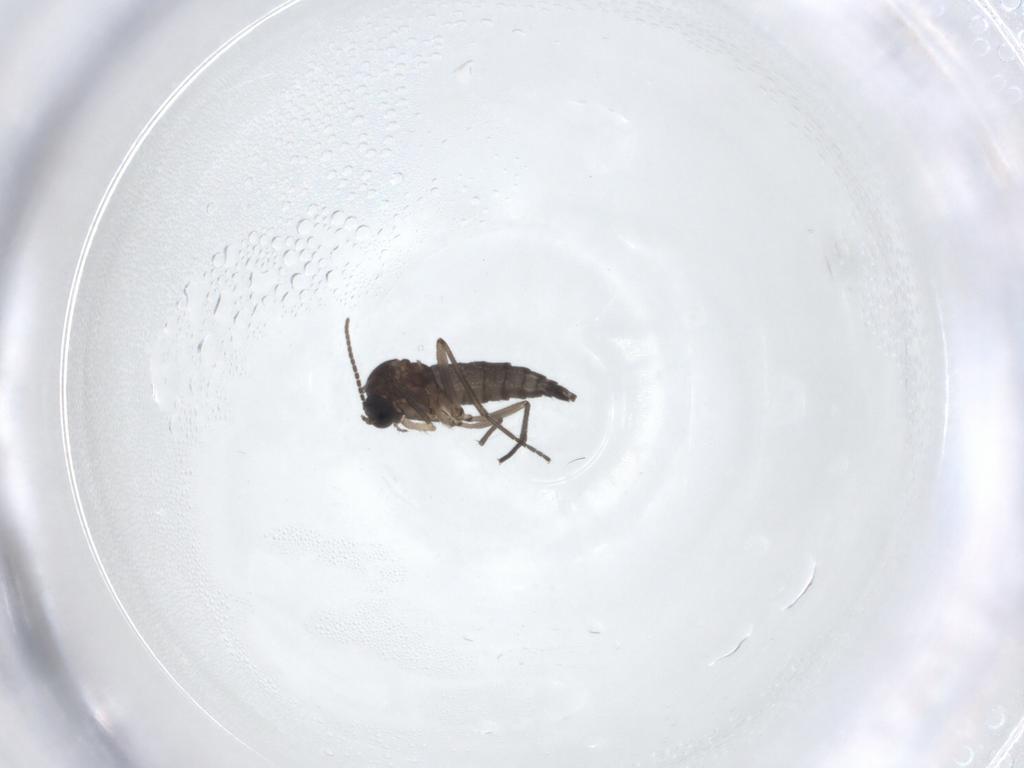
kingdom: Animalia
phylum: Arthropoda
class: Insecta
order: Diptera
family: Sciaridae
